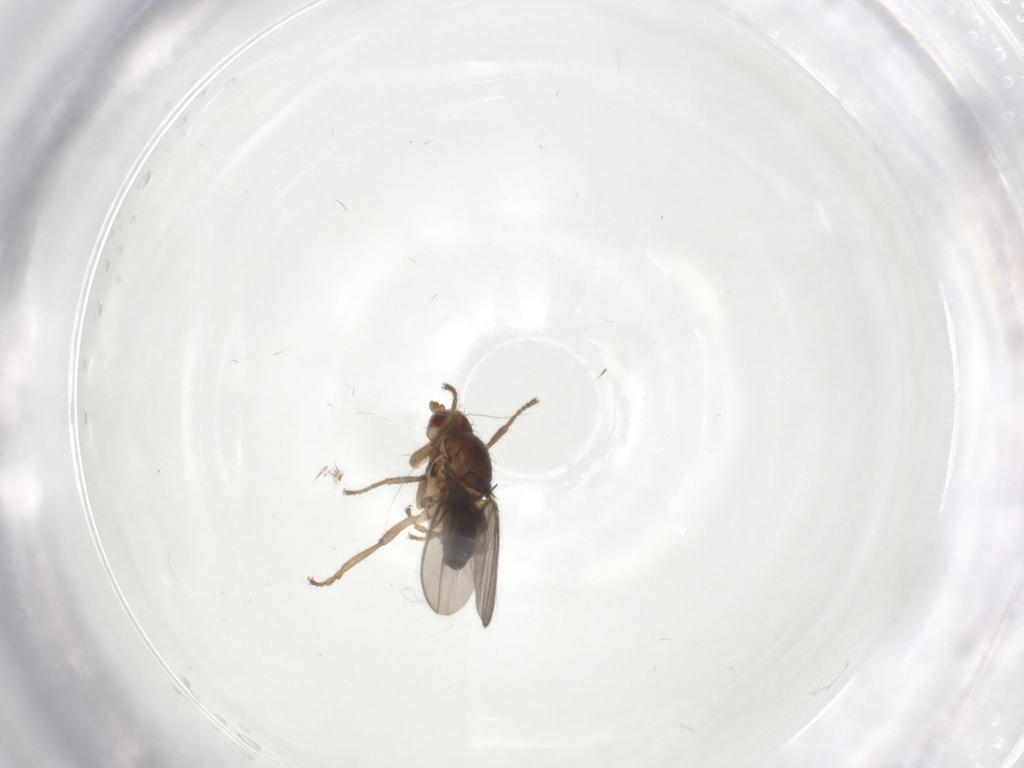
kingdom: Animalia
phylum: Arthropoda
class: Insecta
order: Diptera
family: Sphaeroceridae
